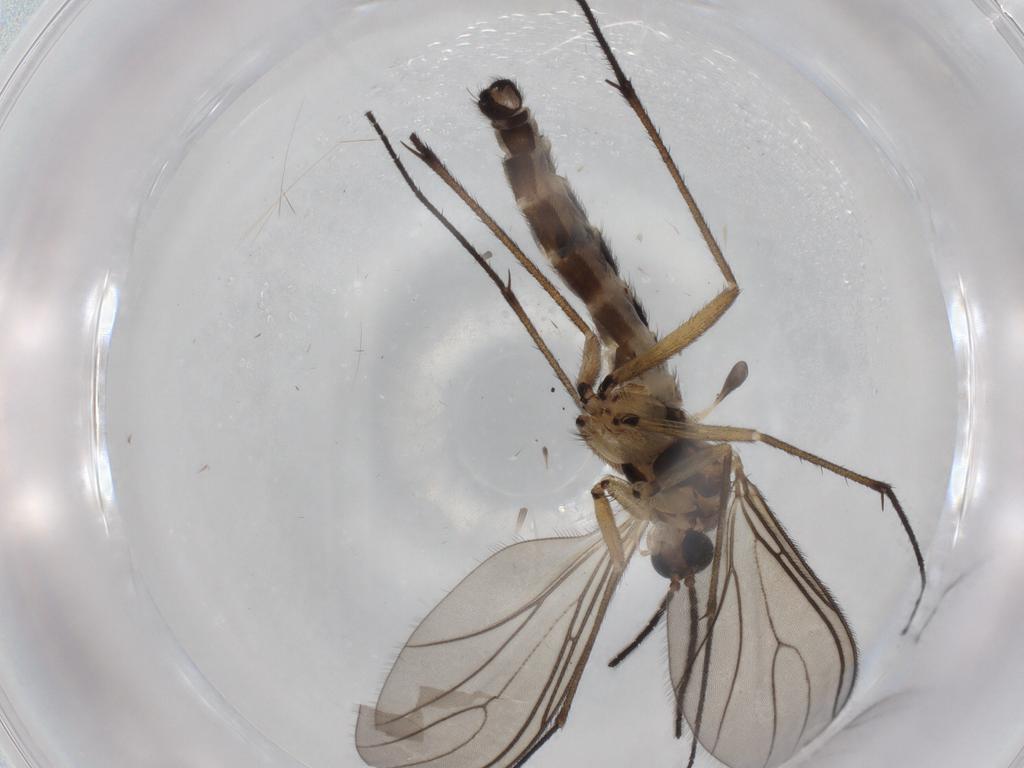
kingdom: Animalia
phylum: Arthropoda
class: Insecta
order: Diptera
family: Sciaridae
